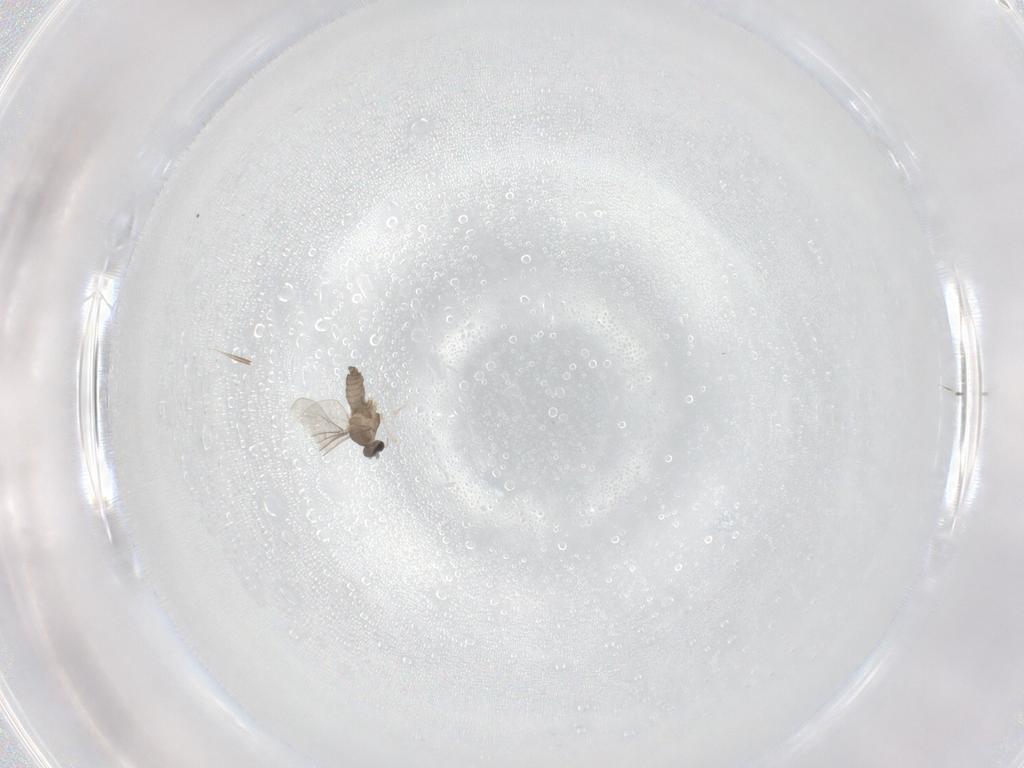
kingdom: Animalia
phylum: Arthropoda
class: Insecta
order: Diptera
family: Cecidomyiidae
